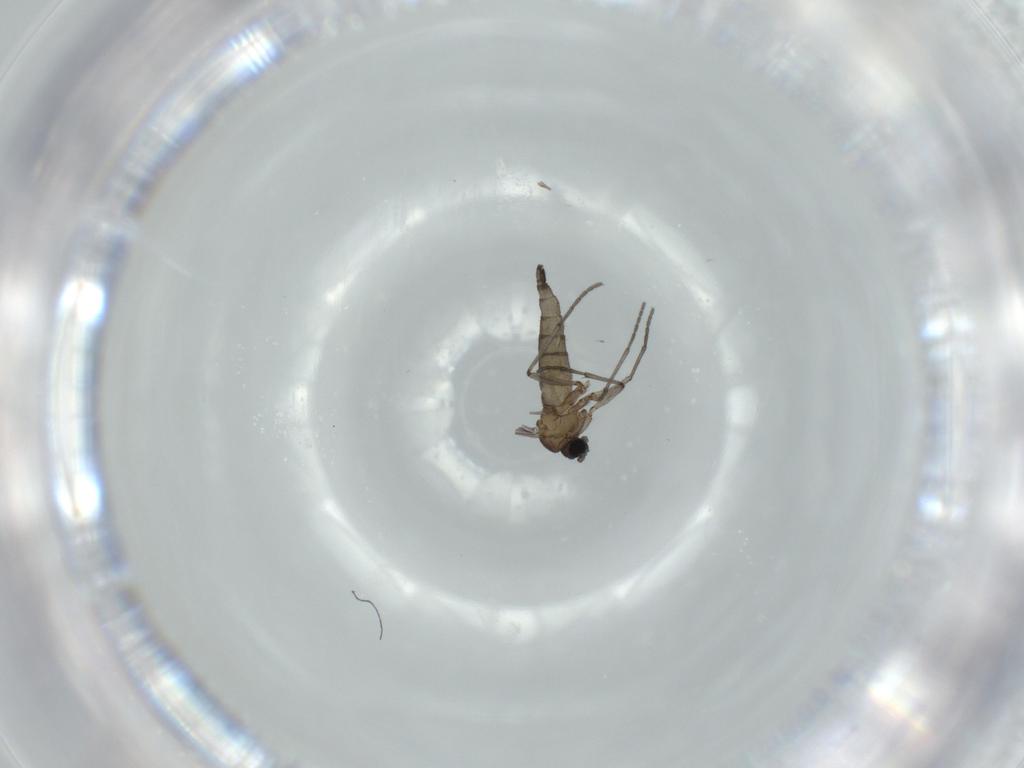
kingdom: Animalia
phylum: Arthropoda
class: Insecta
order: Diptera
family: Sciaridae
